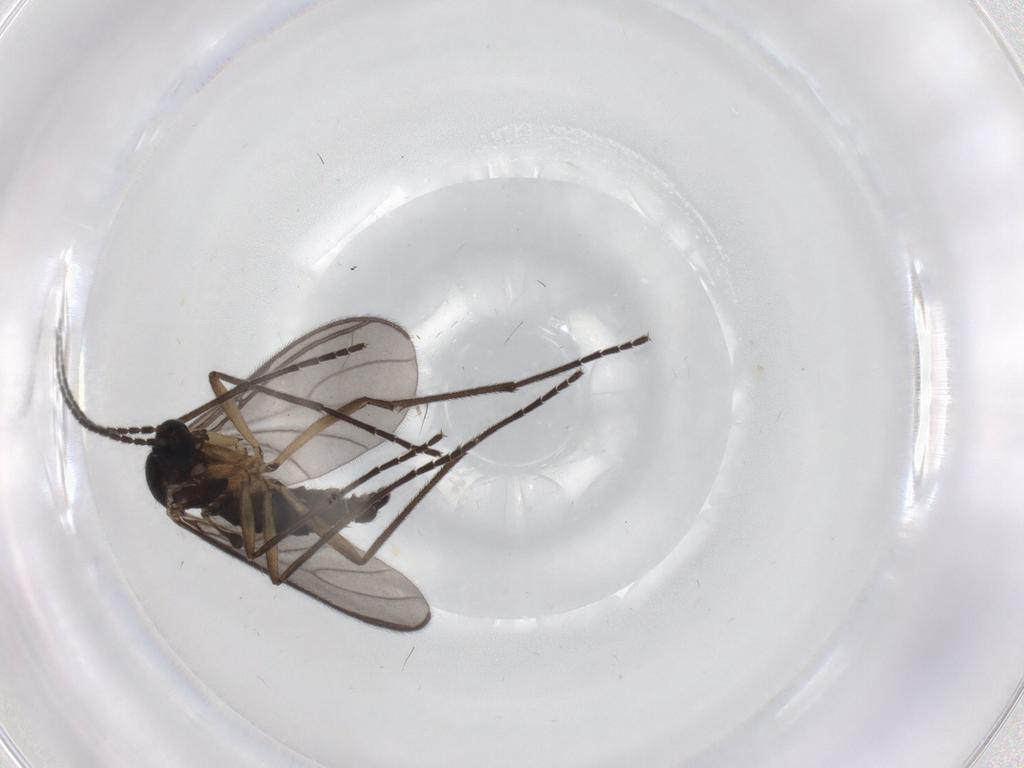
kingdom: Animalia
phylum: Arthropoda
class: Insecta
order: Diptera
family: Sciaridae
